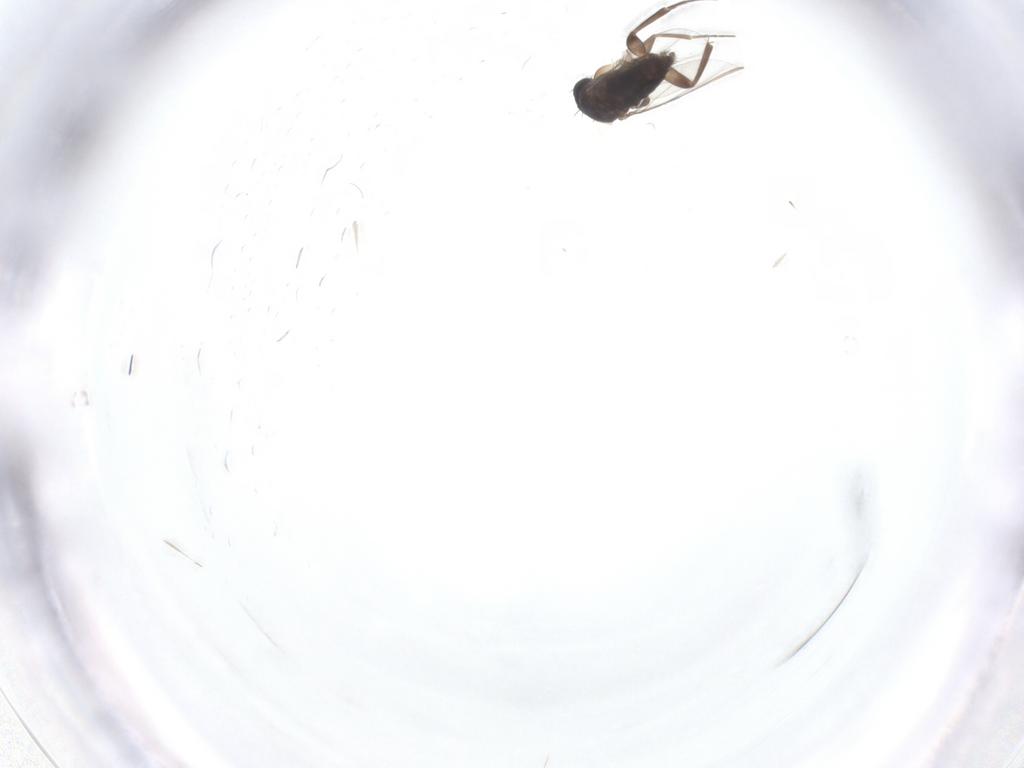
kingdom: Animalia
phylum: Arthropoda
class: Insecta
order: Diptera
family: Phoridae
